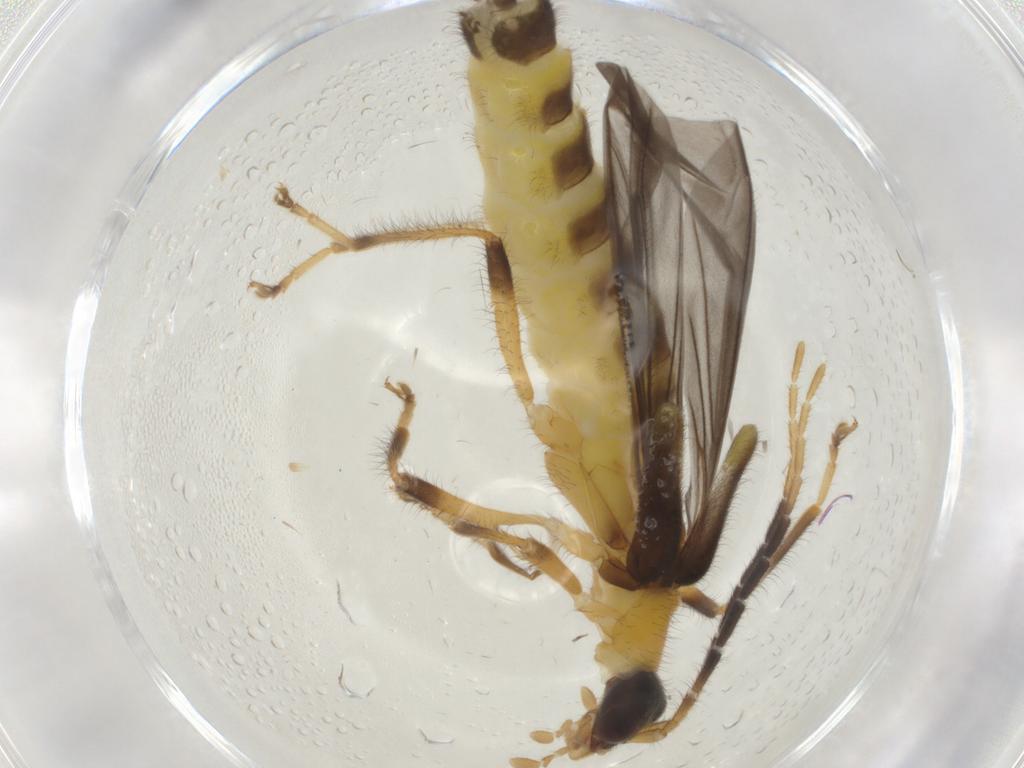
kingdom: Animalia
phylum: Arthropoda
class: Insecta
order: Coleoptera
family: Cantharidae
